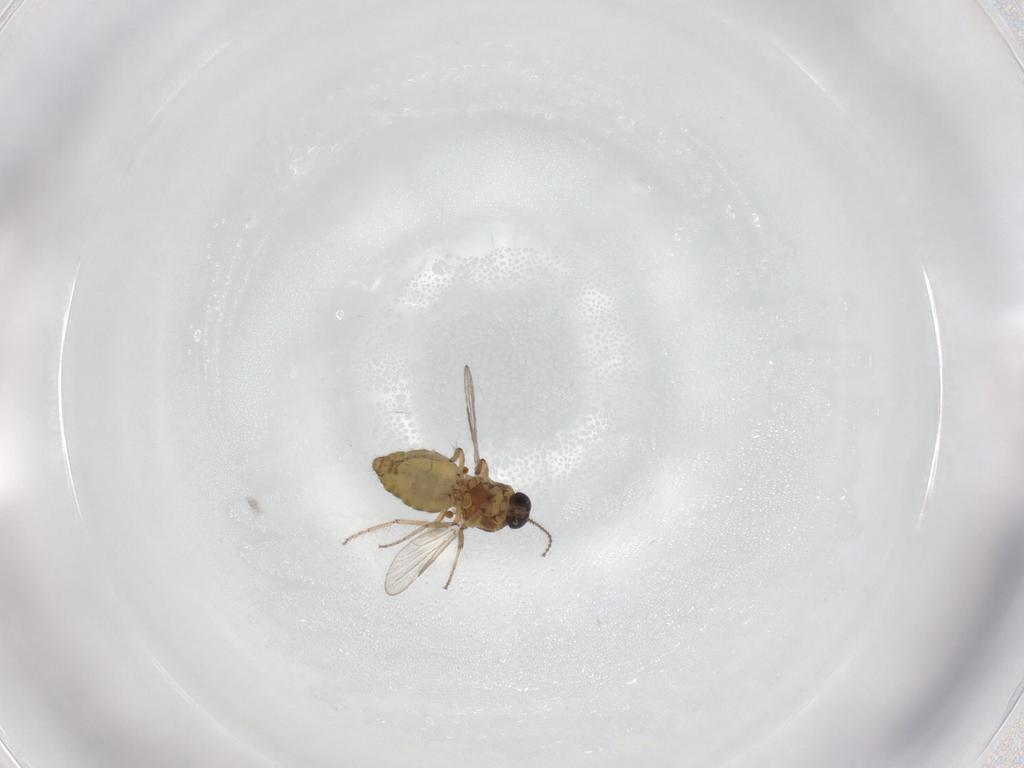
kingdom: Animalia
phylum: Arthropoda
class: Insecta
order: Diptera
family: Ceratopogonidae
